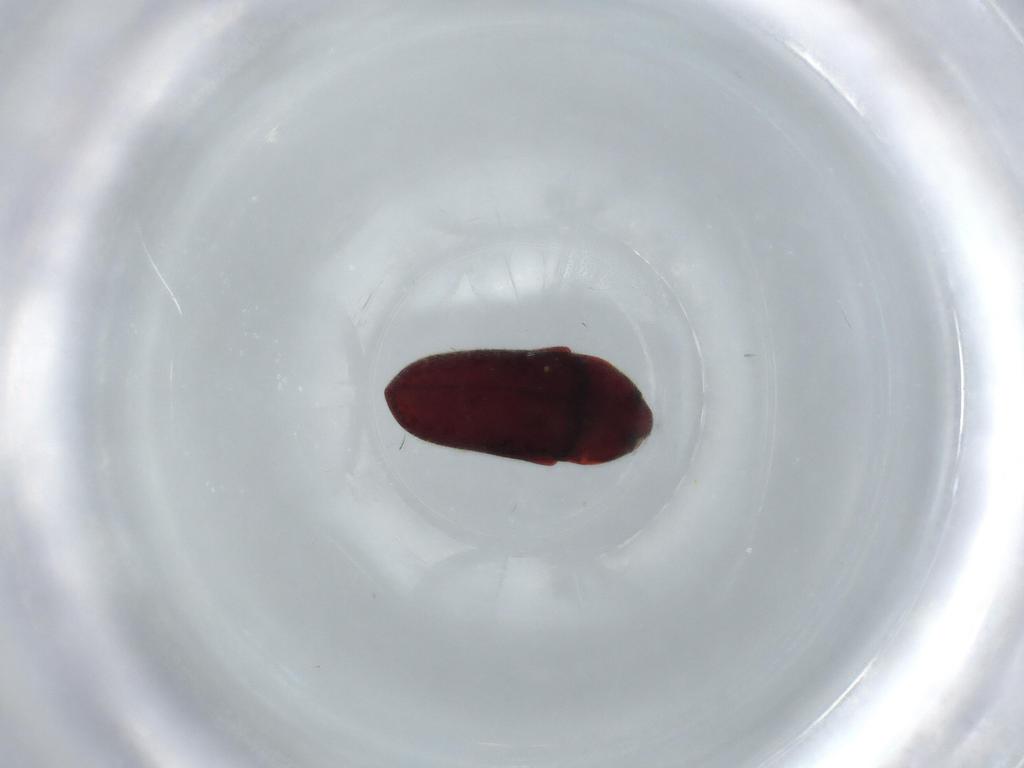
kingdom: Animalia
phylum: Arthropoda
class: Insecta
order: Coleoptera
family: Throscidae
